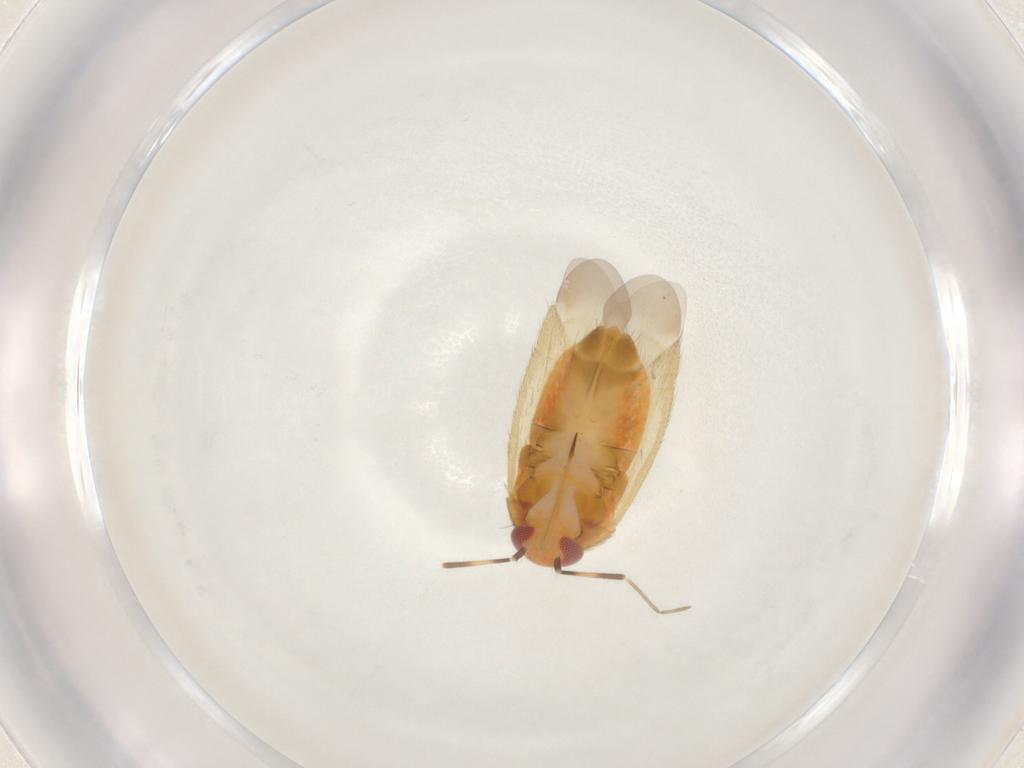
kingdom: Animalia
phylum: Arthropoda
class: Insecta
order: Hemiptera
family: Miridae
